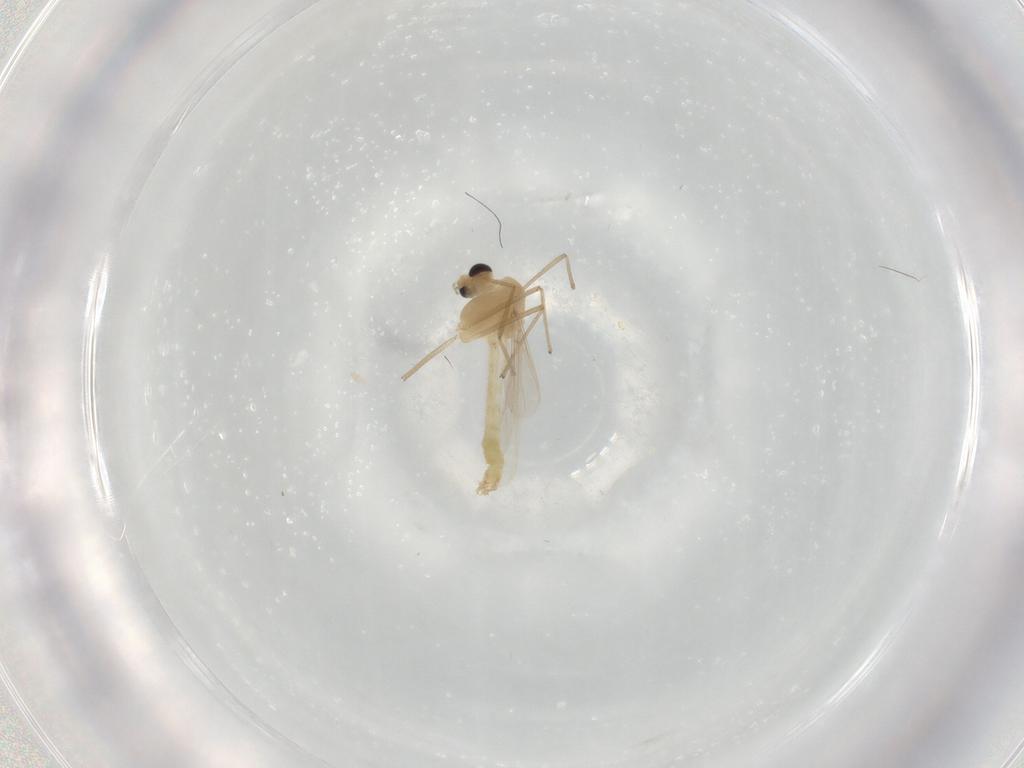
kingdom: Animalia
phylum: Arthropoda
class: Insecta
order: Diptera
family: Chironomidae
